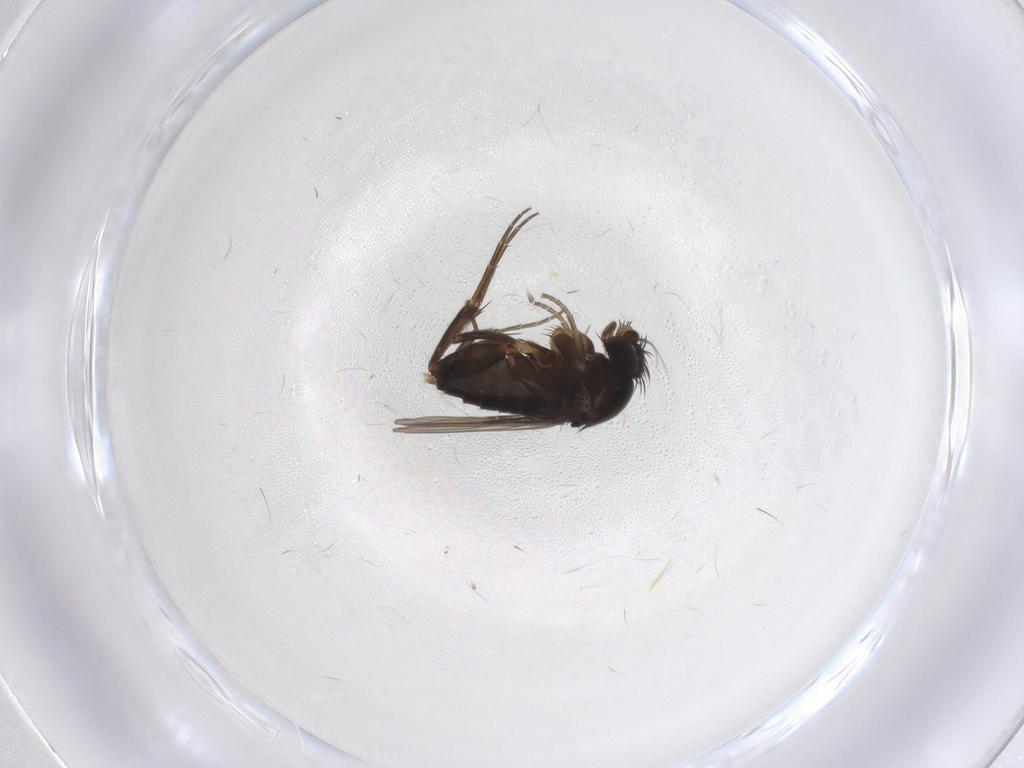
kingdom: Animalia
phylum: Arthropoda
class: Insecta
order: Diptera
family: Phoridae
